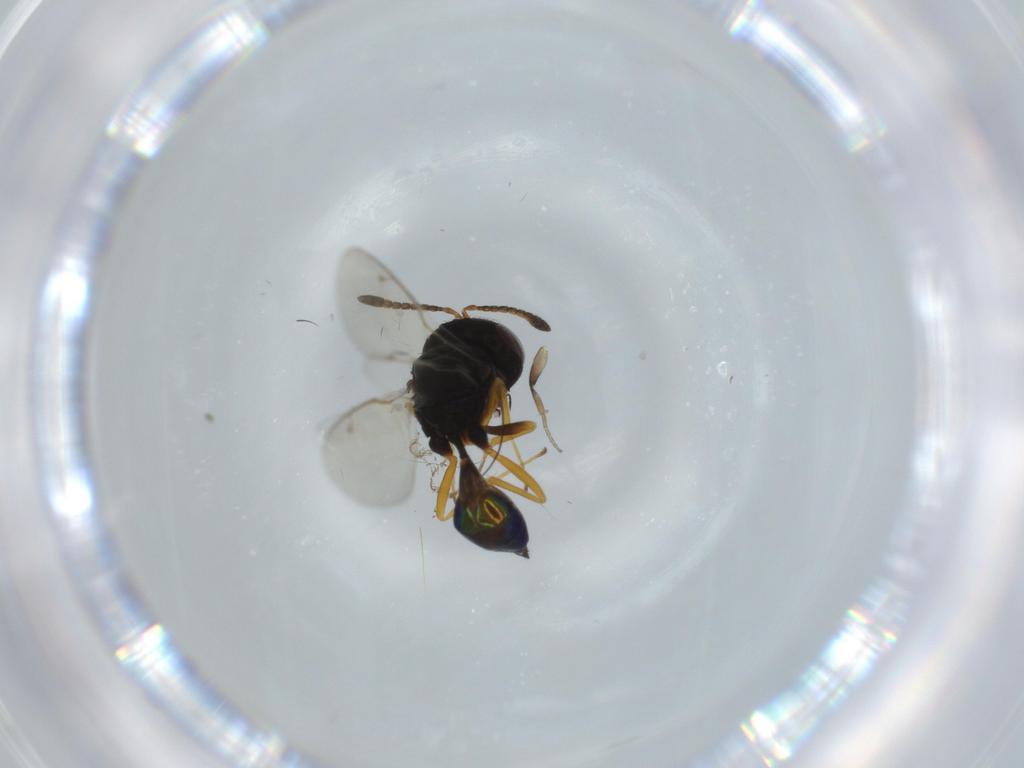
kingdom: Animalia
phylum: Arthropoda
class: Insecta
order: Hymenoptera
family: Pteromalidae
